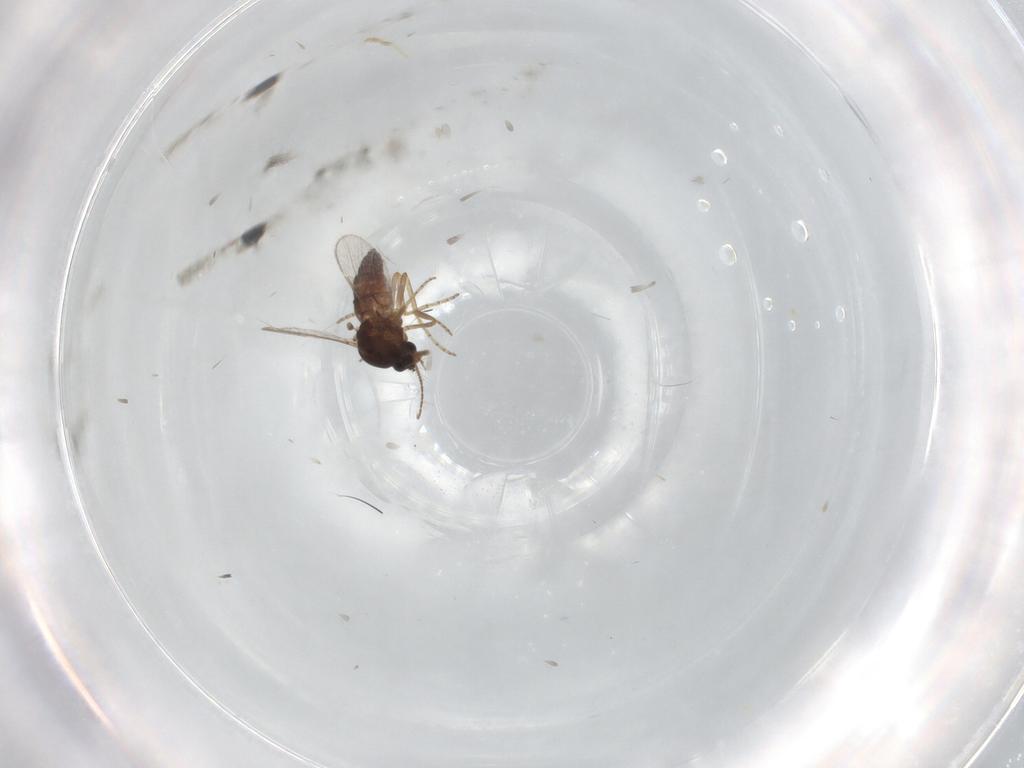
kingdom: Animalia
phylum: Arthropoda
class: Insecta
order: Diptera
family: Ceratopogonidae
